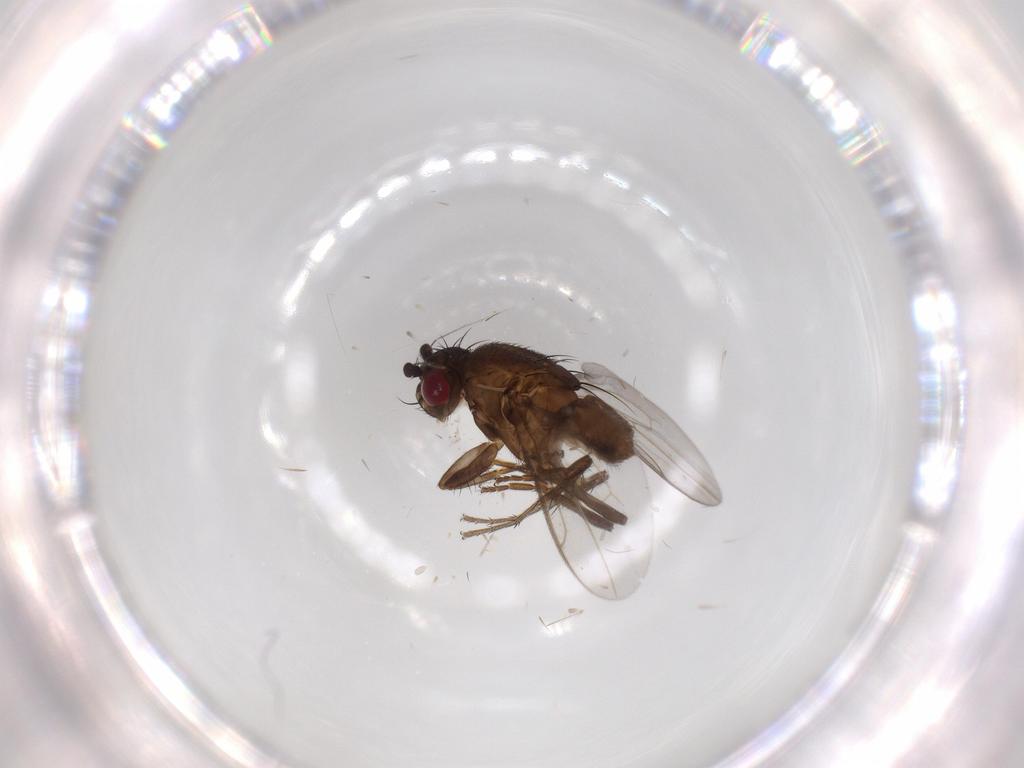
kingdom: Animalia
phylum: Arthropoda
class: Insecta
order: Diptera
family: Sphaeroceridae
